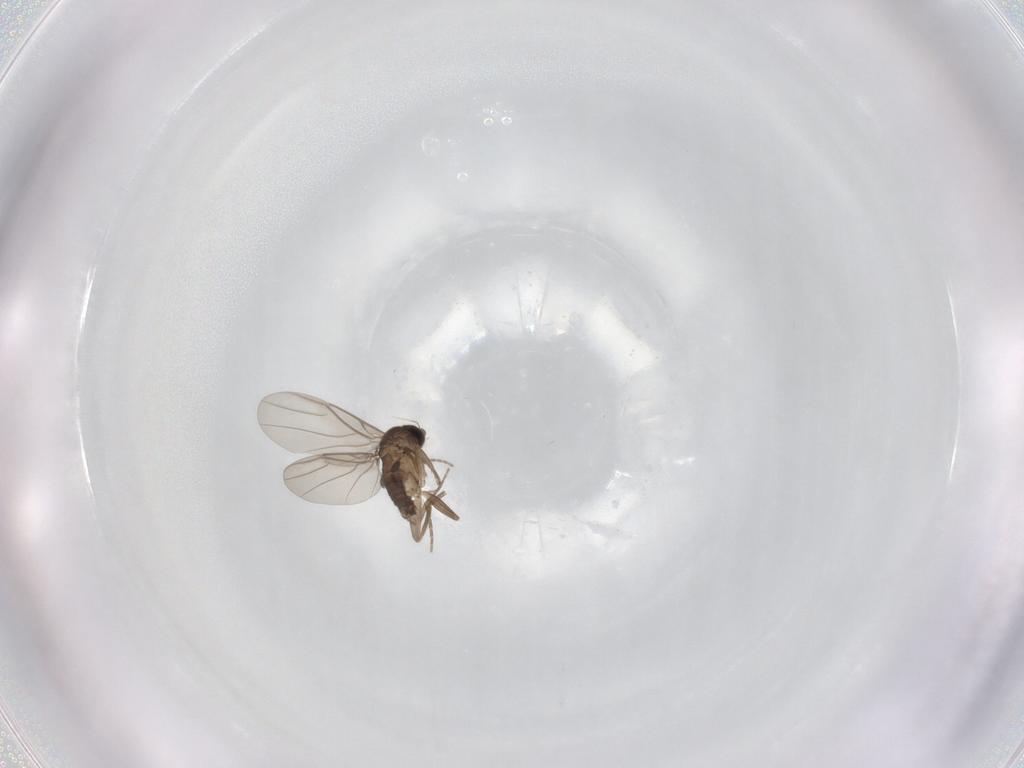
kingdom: Animalia
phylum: Arthropoda
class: Insecta
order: Diptera
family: Phoridae
